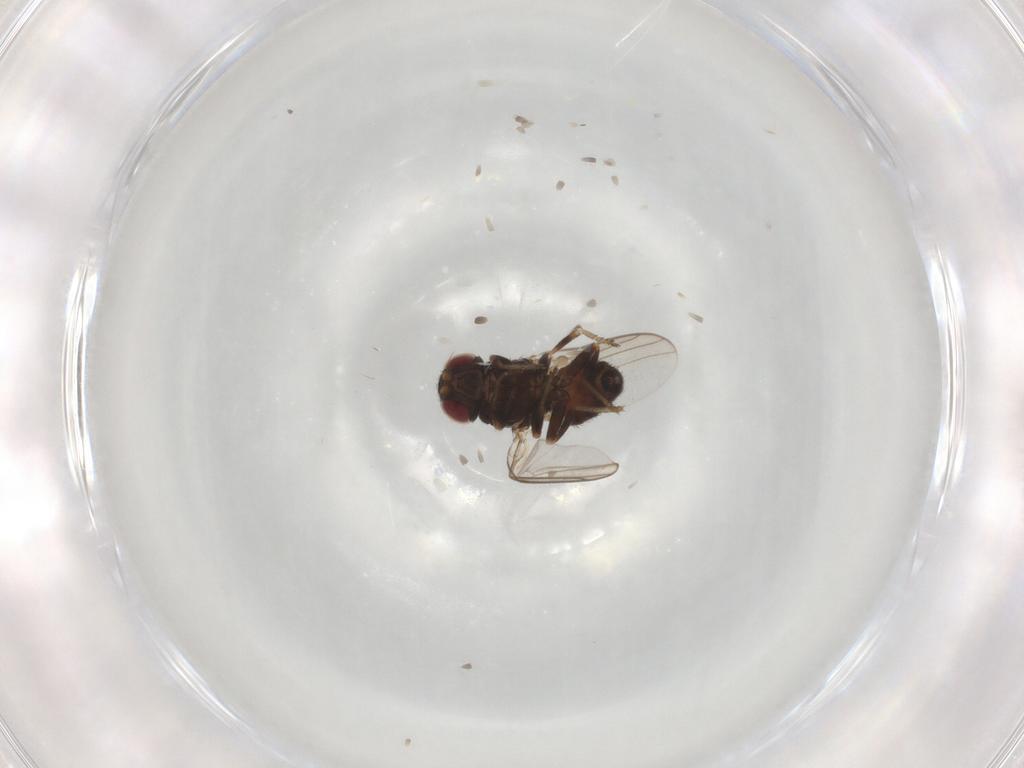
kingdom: Animalia
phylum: Arthropoda
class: Insecta
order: Diptera
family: Chloropidae
